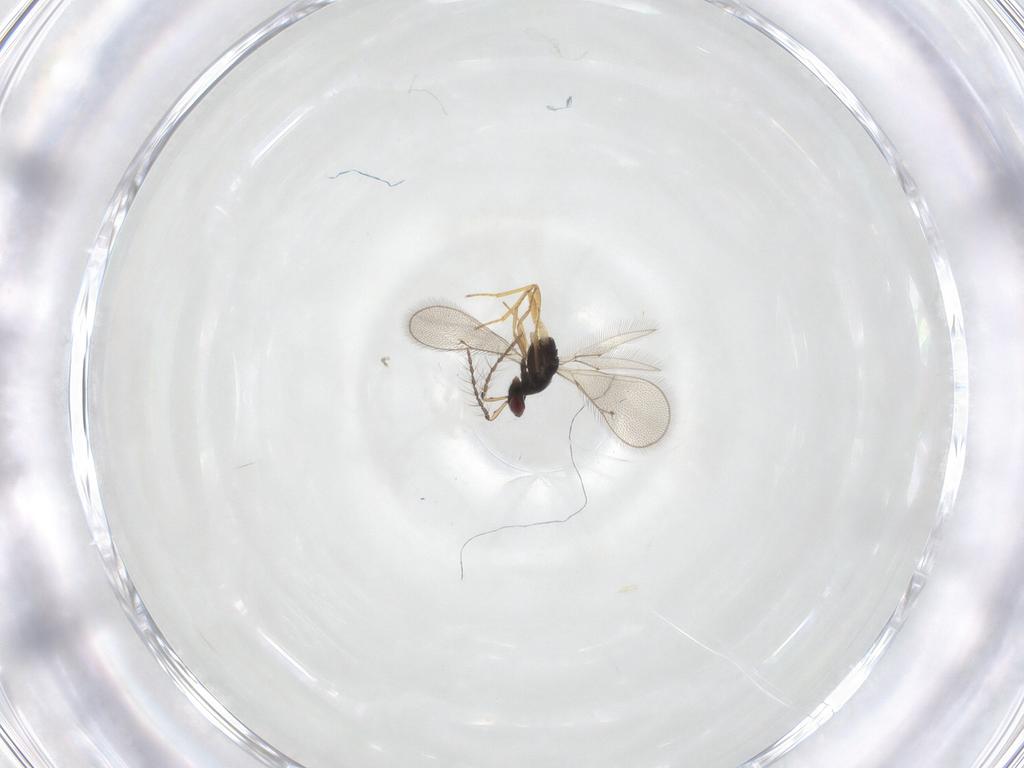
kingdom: Animalia
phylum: Arthropoda
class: Insecta
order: Hymenoptera
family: Eulophidae
